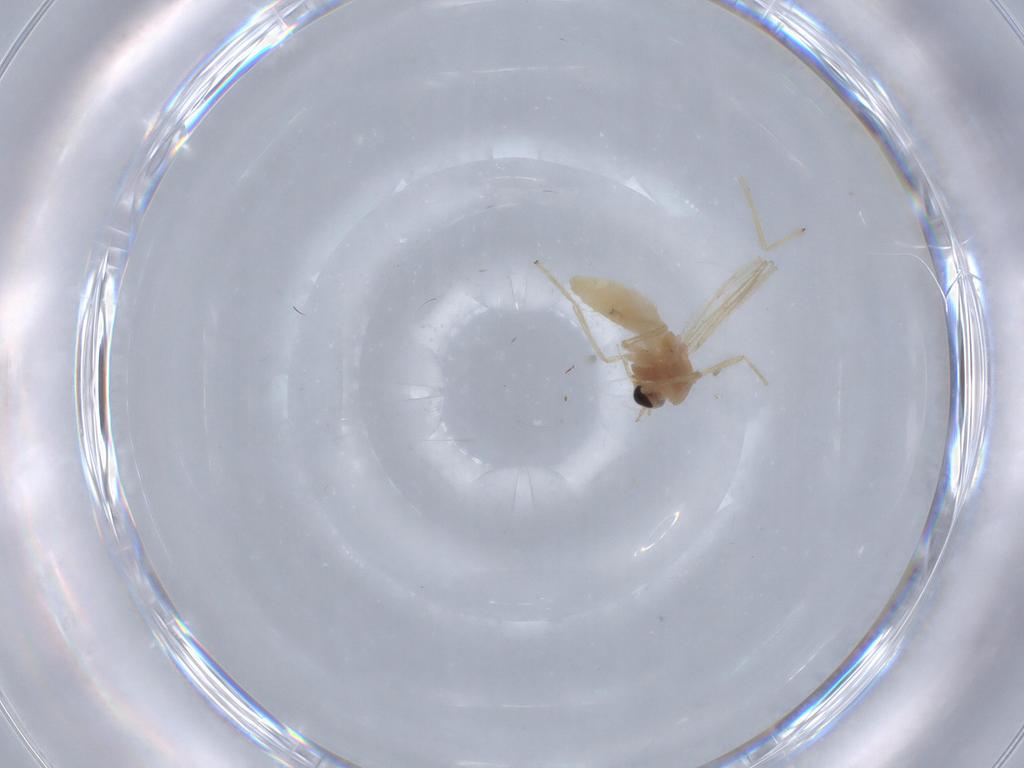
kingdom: Animalia
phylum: Arthropoda
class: Insecta
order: Diptera
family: Chironomidae
